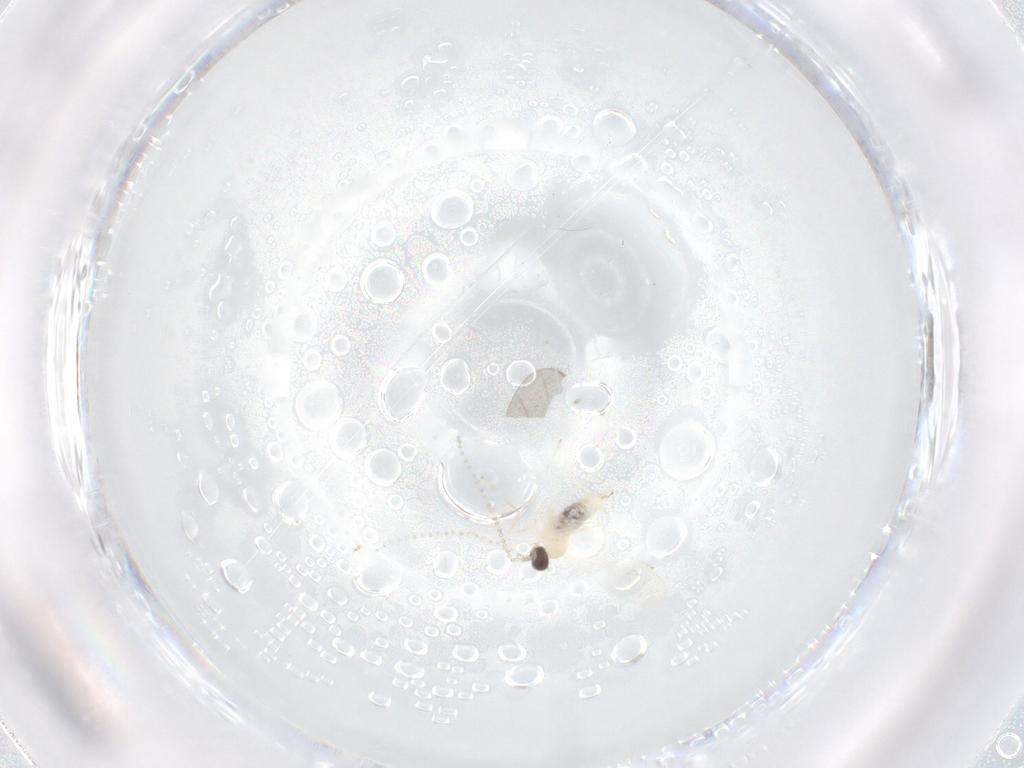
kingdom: Animalia
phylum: Arthropoda
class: Insecta
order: Diptera
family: Sciaridae
